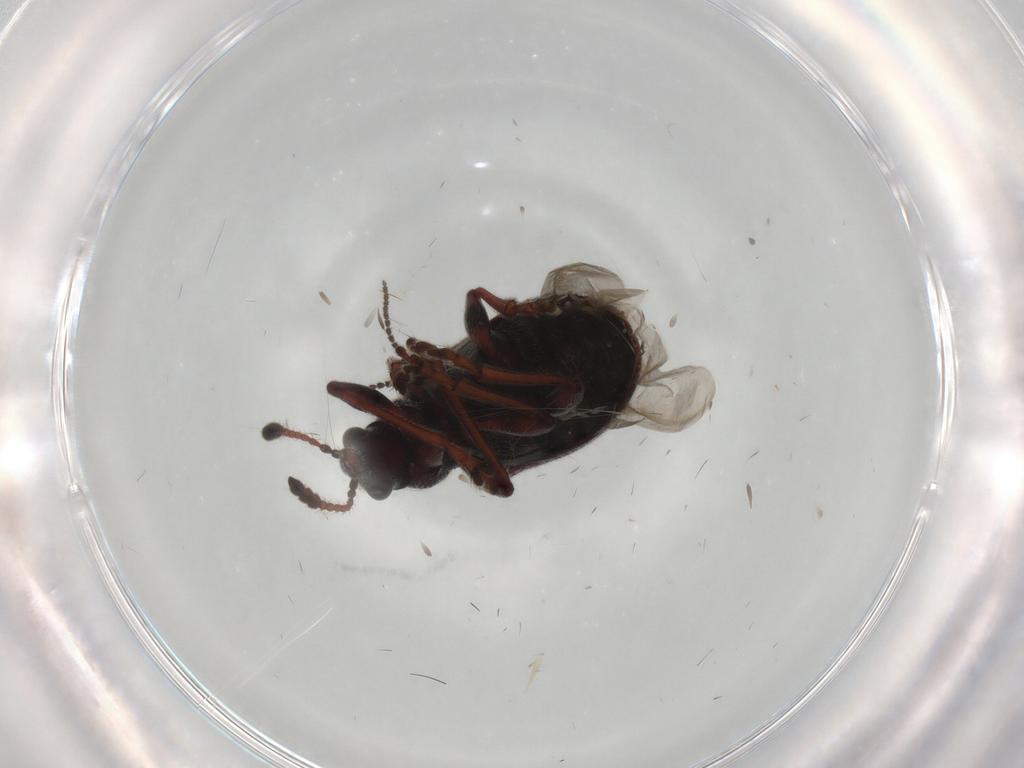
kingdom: Animalia
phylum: Arthropoda
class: Insecta
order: Coleoptera
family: Attelabidae
